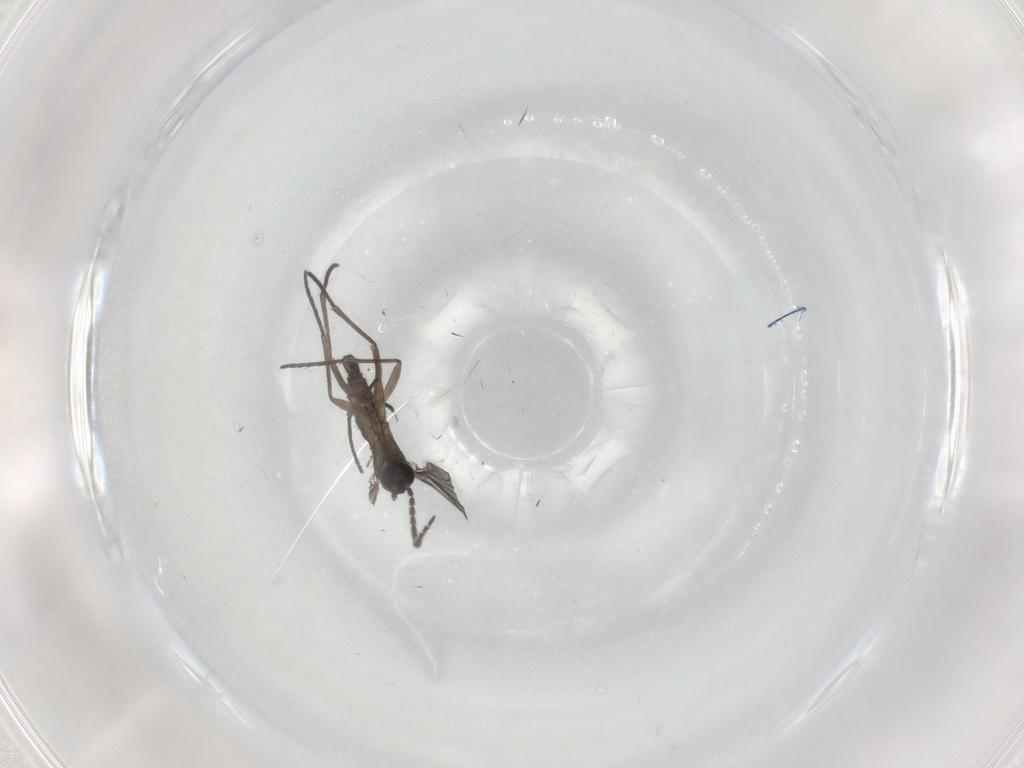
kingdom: Animalia
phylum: Arthropoda
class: Insecta
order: Diptera
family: Sciaridae
